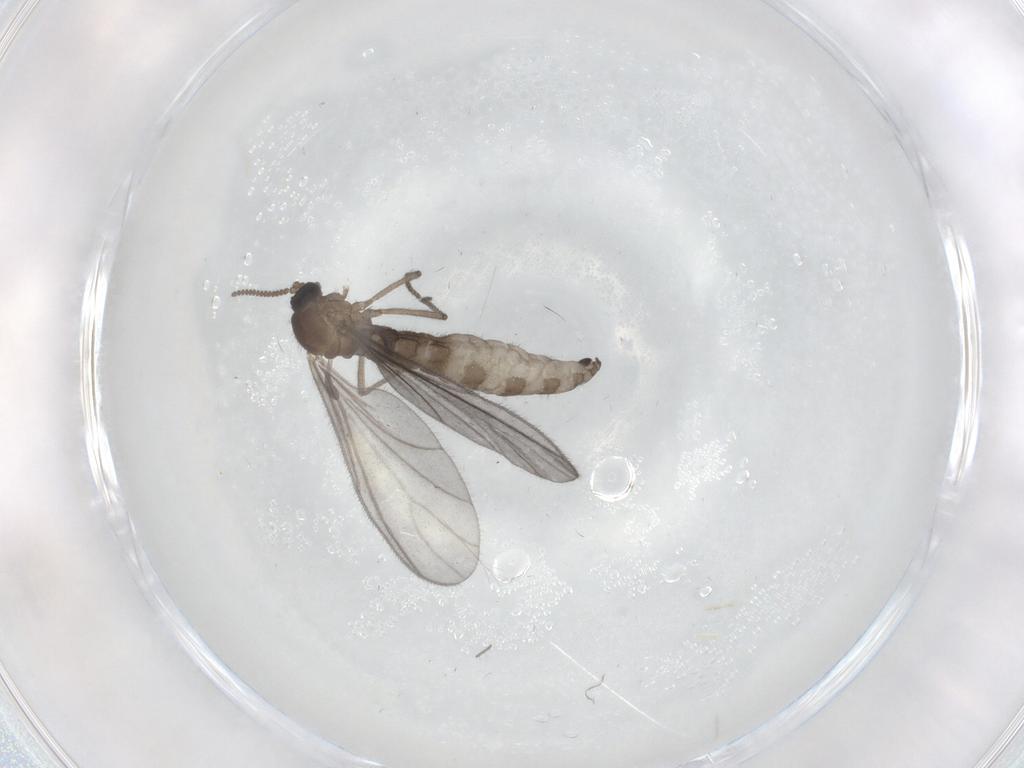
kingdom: Animalia
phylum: Arthropoda
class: Insecta
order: Diptera
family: Sciaridae
